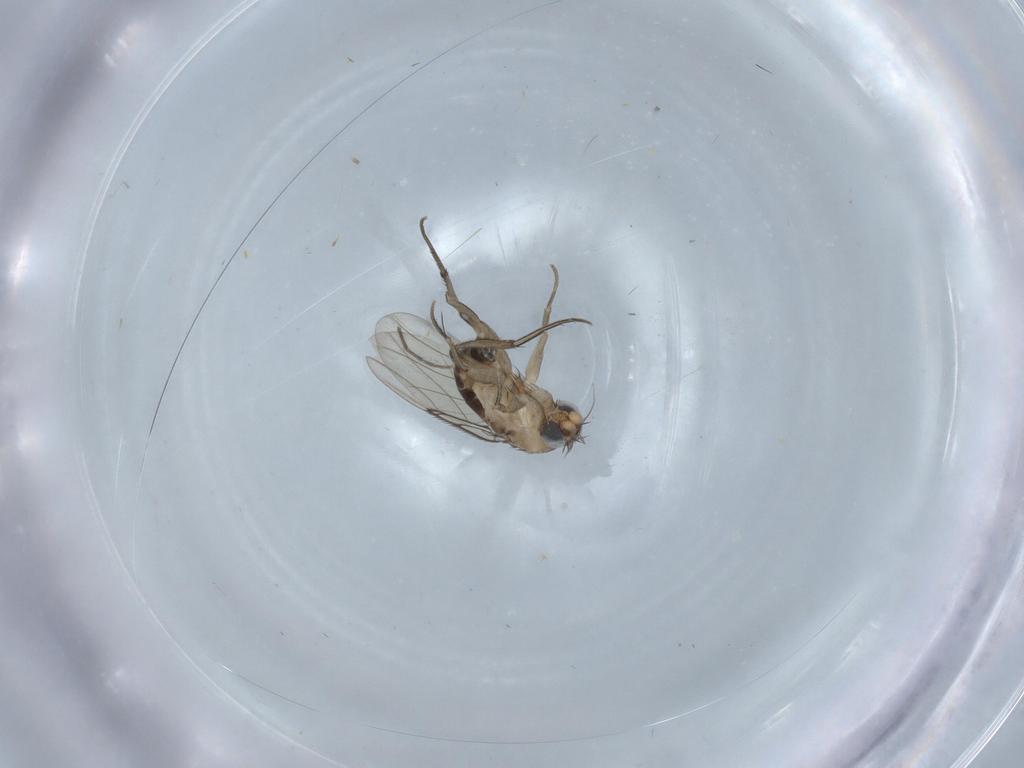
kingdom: Animalia
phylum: Arthropoda
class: Insecta
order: Diptera
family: Phoridae
